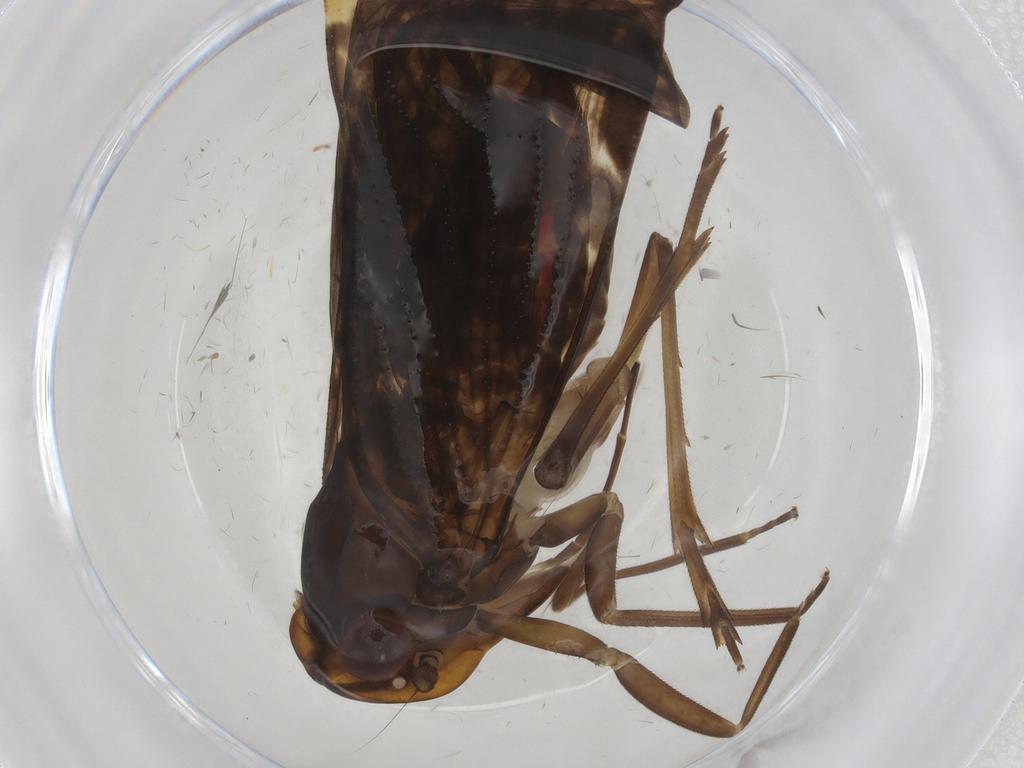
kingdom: Animalia
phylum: Arthropoda
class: Insecta
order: Hemiptera
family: Cixiidae
